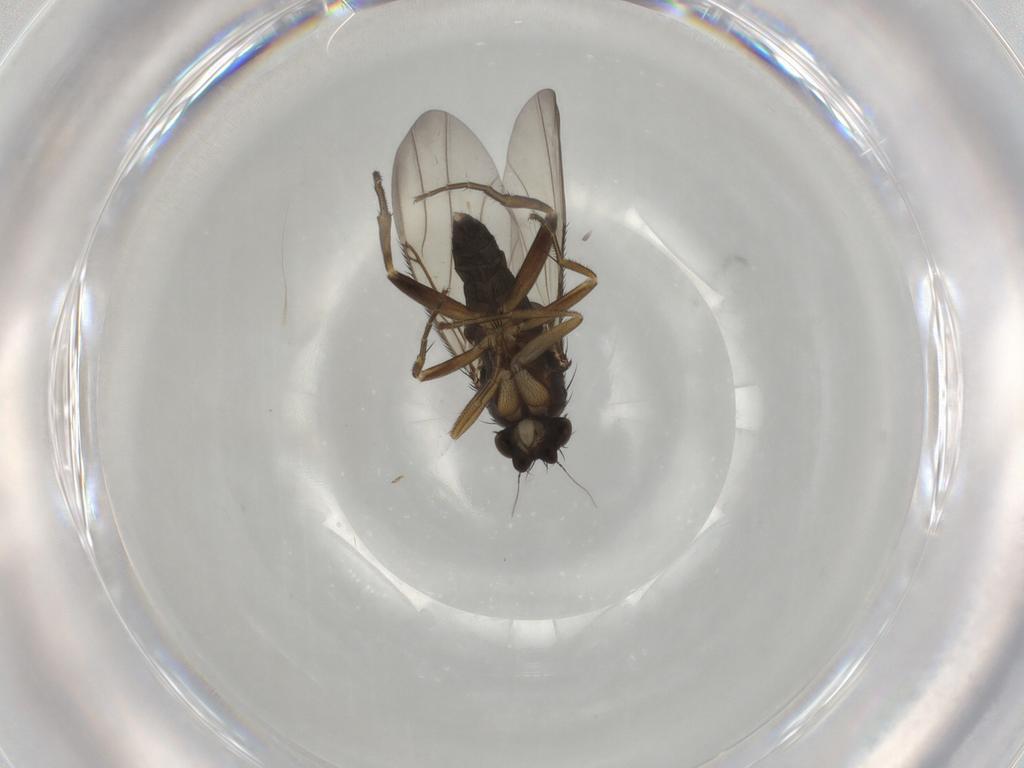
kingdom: Animalia
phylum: Arthropoda
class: Insecta
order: Diptera
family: Phoridae
